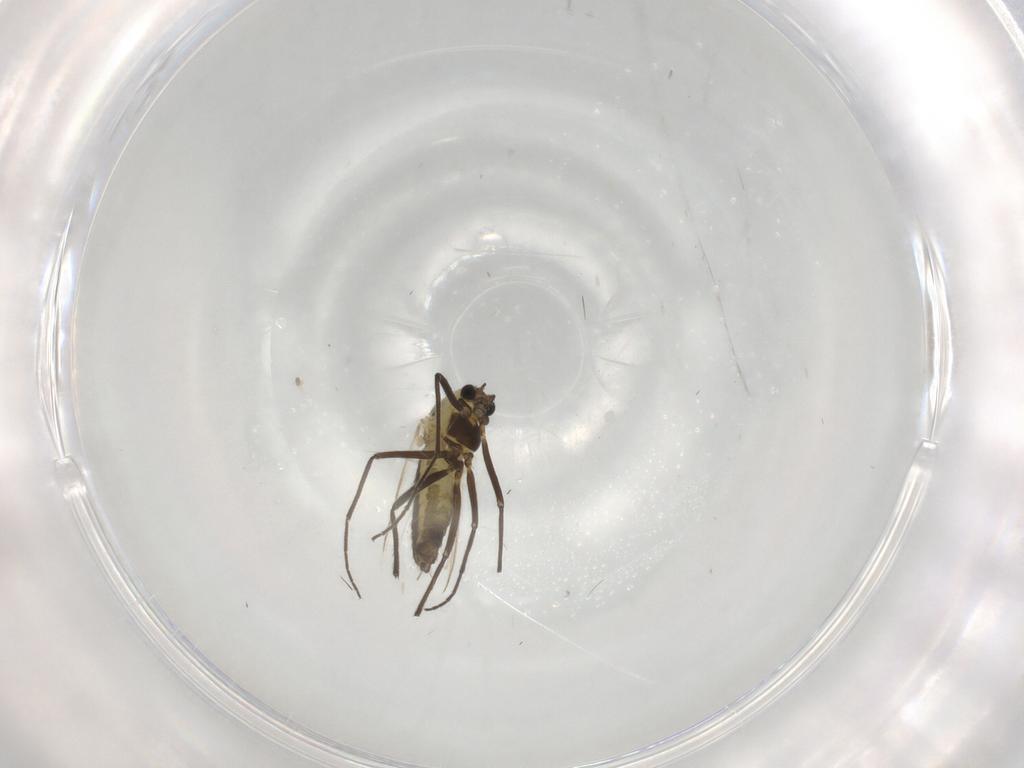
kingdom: Animalia
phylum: Arthropoda
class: Insecta
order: Diptera
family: Chironomidae
